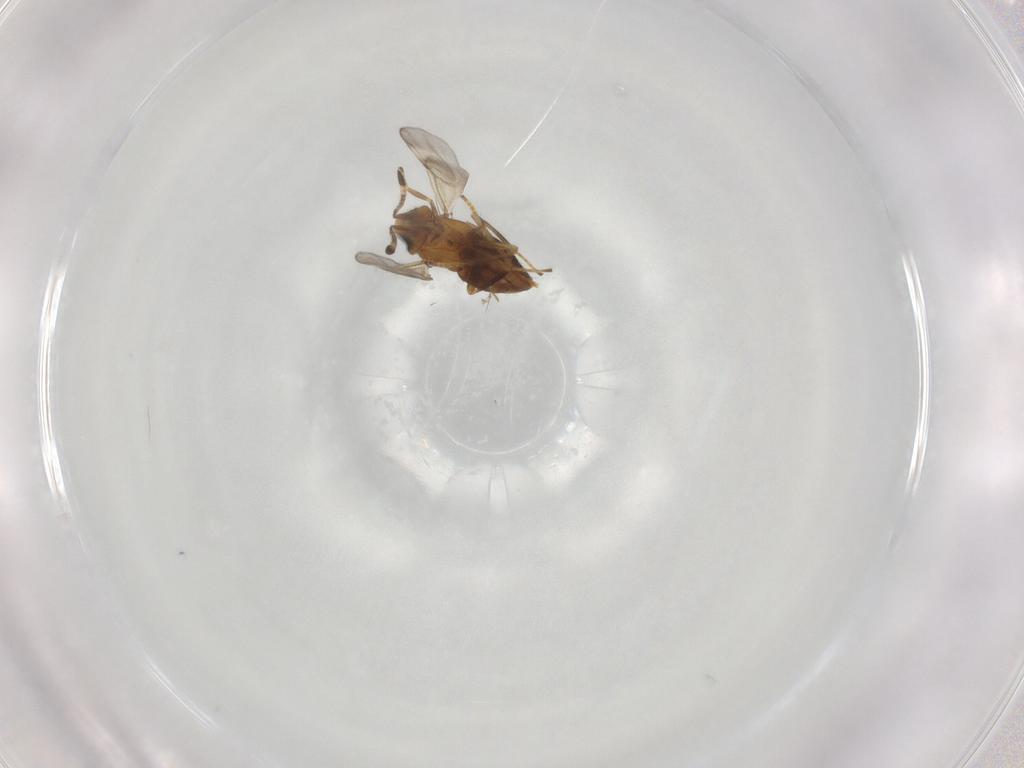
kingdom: Animalia
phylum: Arthropoda
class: Insecta
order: Hymenoptera
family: Encyrtidae
